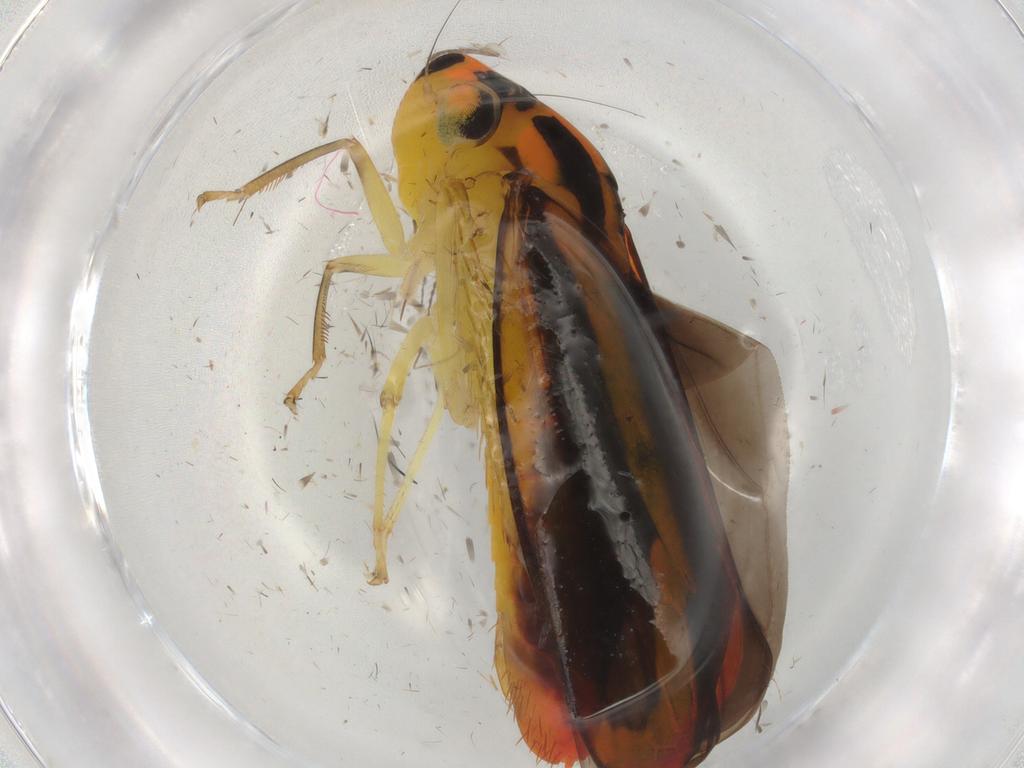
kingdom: Animalia
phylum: Arthropoda
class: Insecta
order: Hemiptera
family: Cicadellidae
